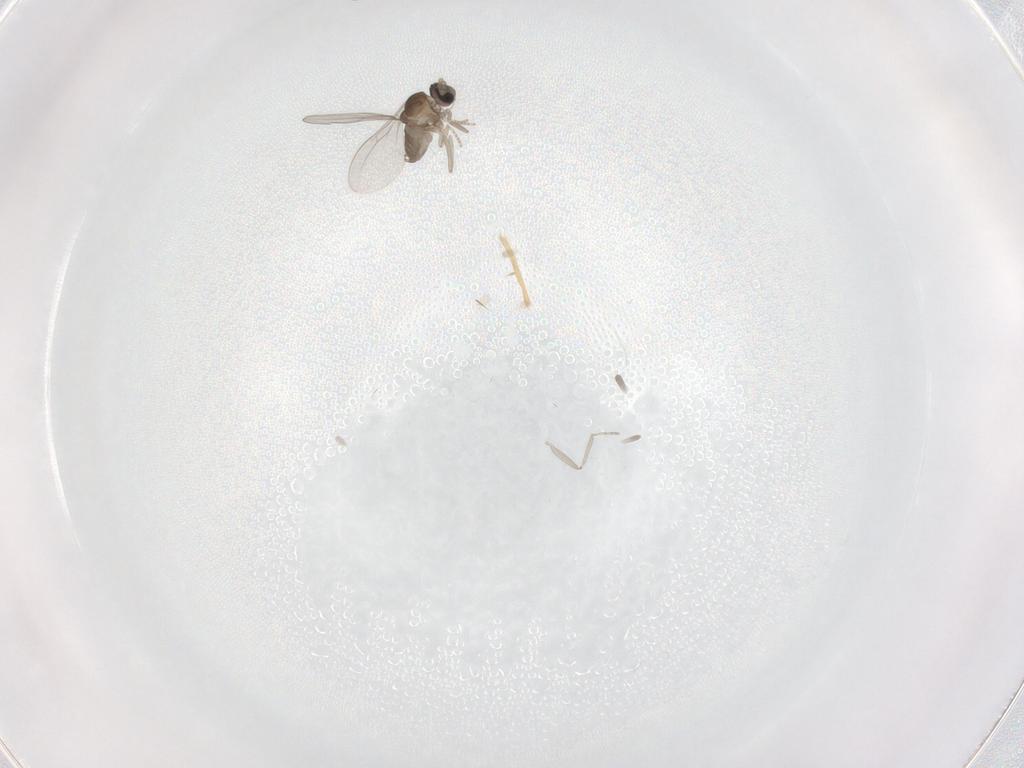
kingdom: Animalia
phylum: Arthropoda
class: Insecta
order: Diptera
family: Cecidomyiidae
